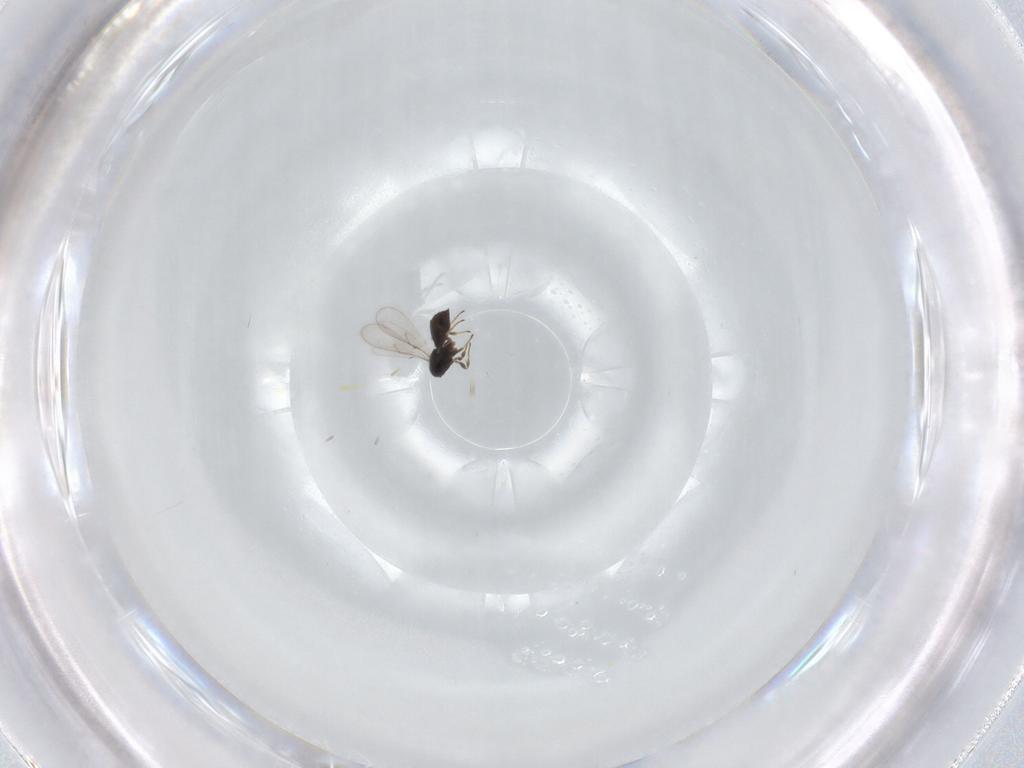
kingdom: Animalia
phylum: Arthropoda
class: Insecta
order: Hymenoptera
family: Scelionidae
